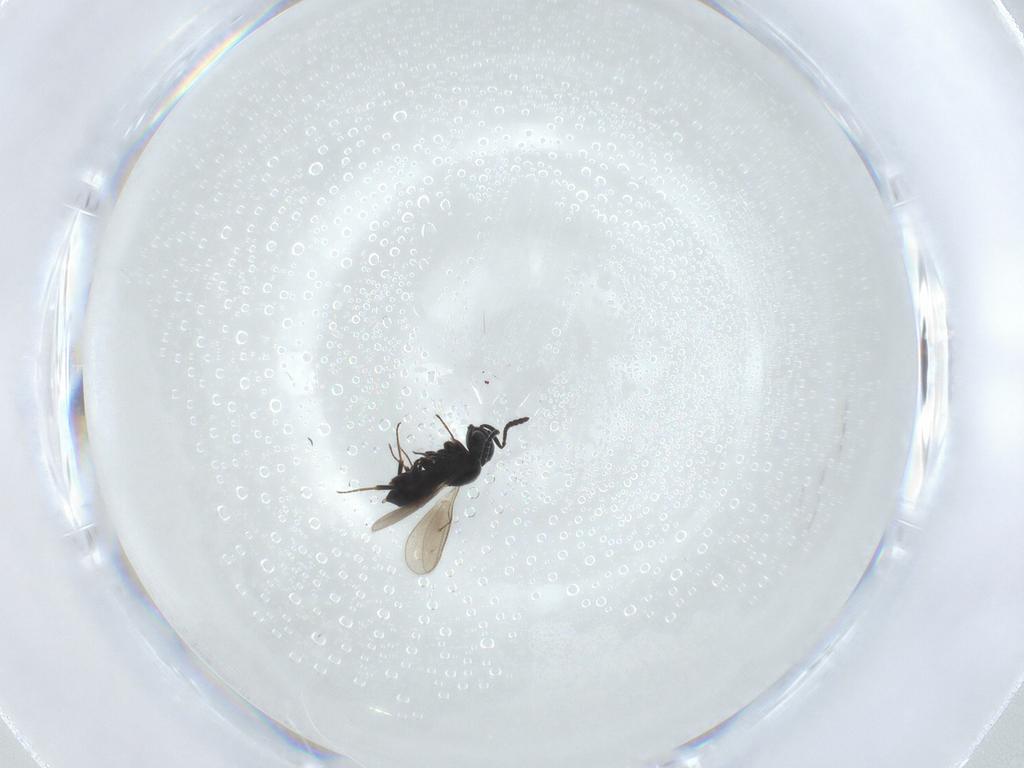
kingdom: Animalia
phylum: Arthropoda
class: Insecta
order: Hymenoptera
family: Scelionidae
